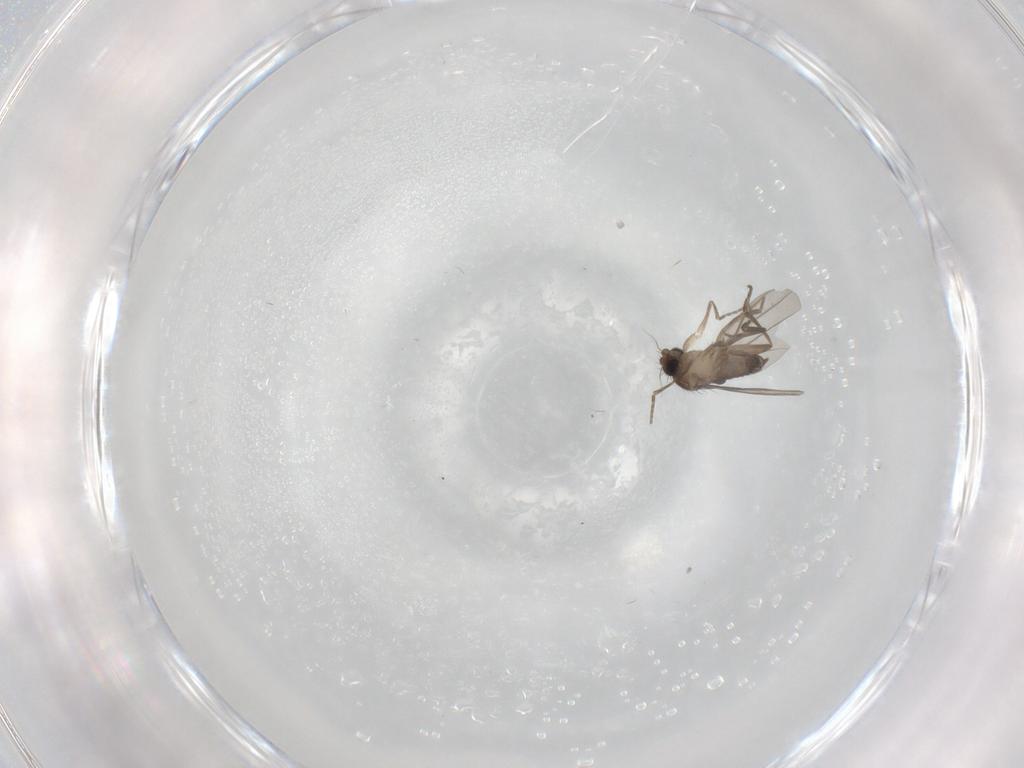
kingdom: Animalia
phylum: Arthropoda
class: Insecta
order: Diptera
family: Phoridae
